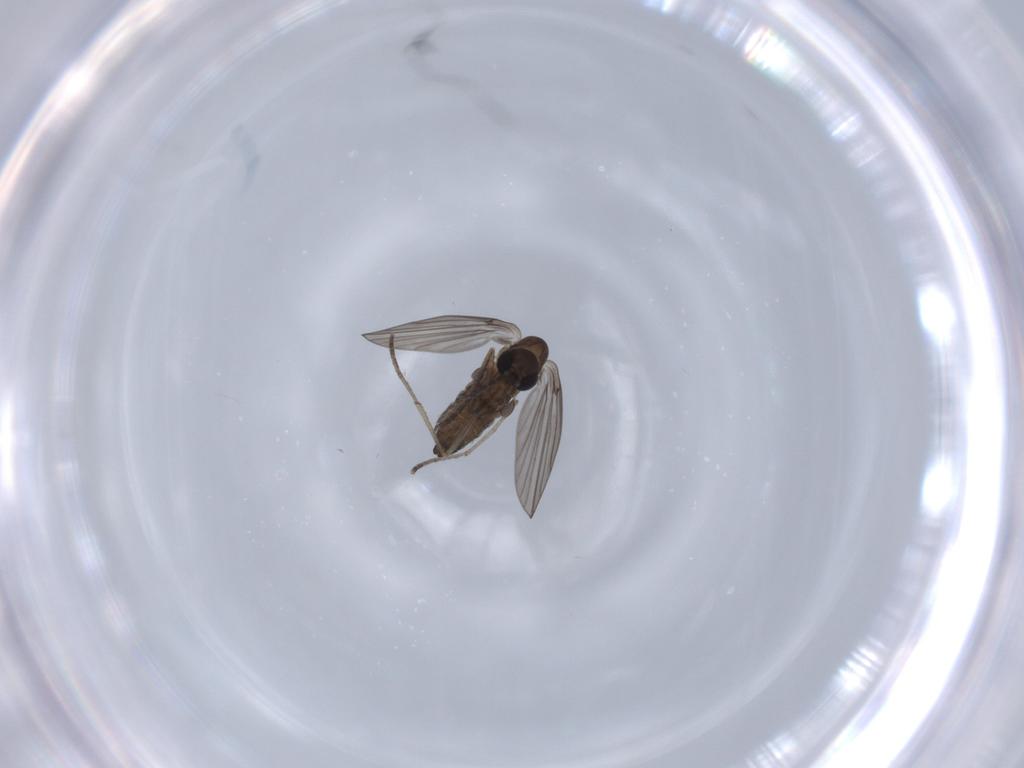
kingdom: Animalia
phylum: Arthropoda
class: Insecta
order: Diptera
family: Psychodidae
